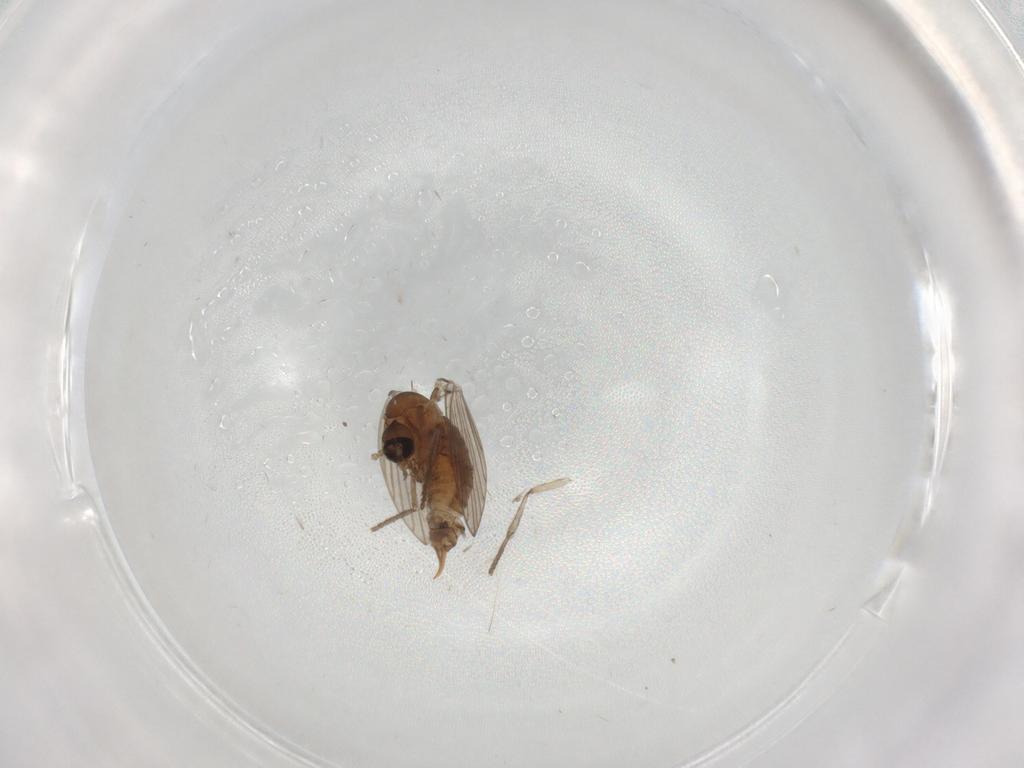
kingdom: Animalia
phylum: Arthropoda
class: Insecta
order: Diptera
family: Psychodidae
